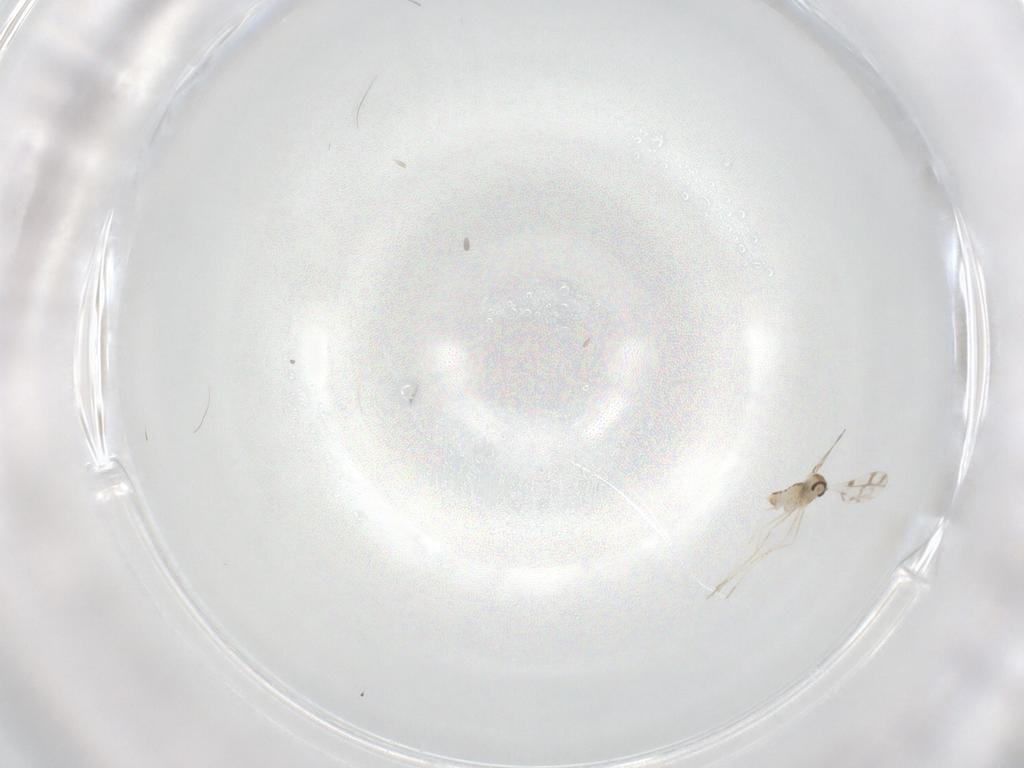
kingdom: Animalia
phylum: Arthropoda
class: Insecta
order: Diptera
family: Cecidomyiidae
